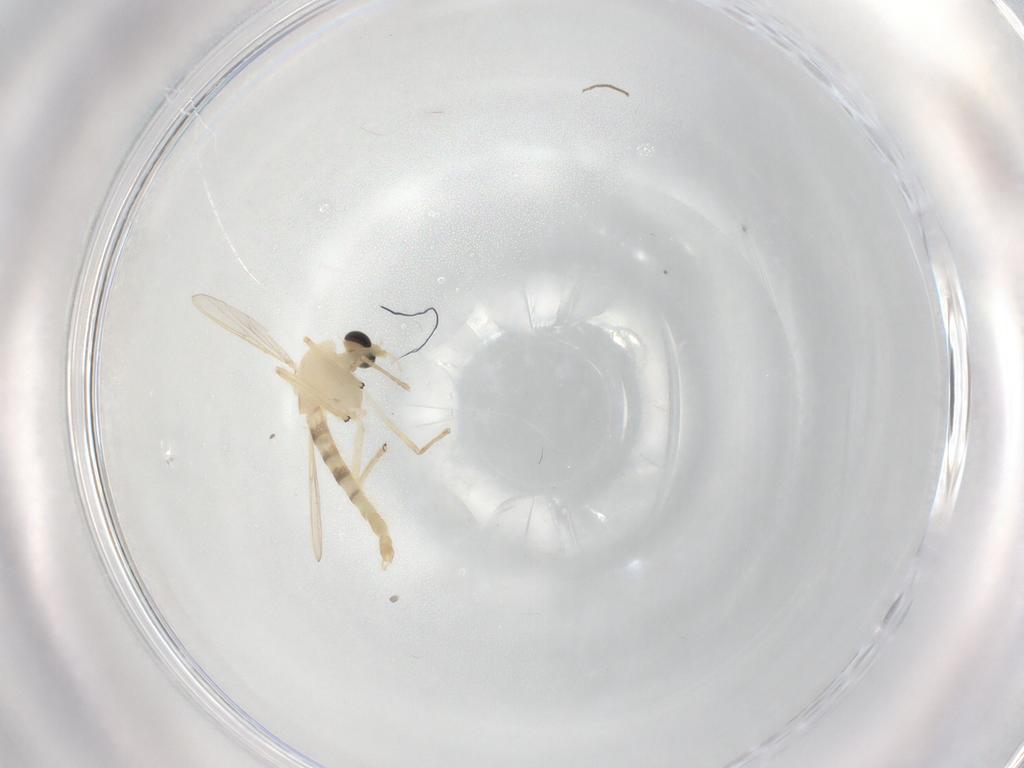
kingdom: Animalia
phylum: Arthropoda
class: Insecta
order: Diptera
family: Chironomidae
